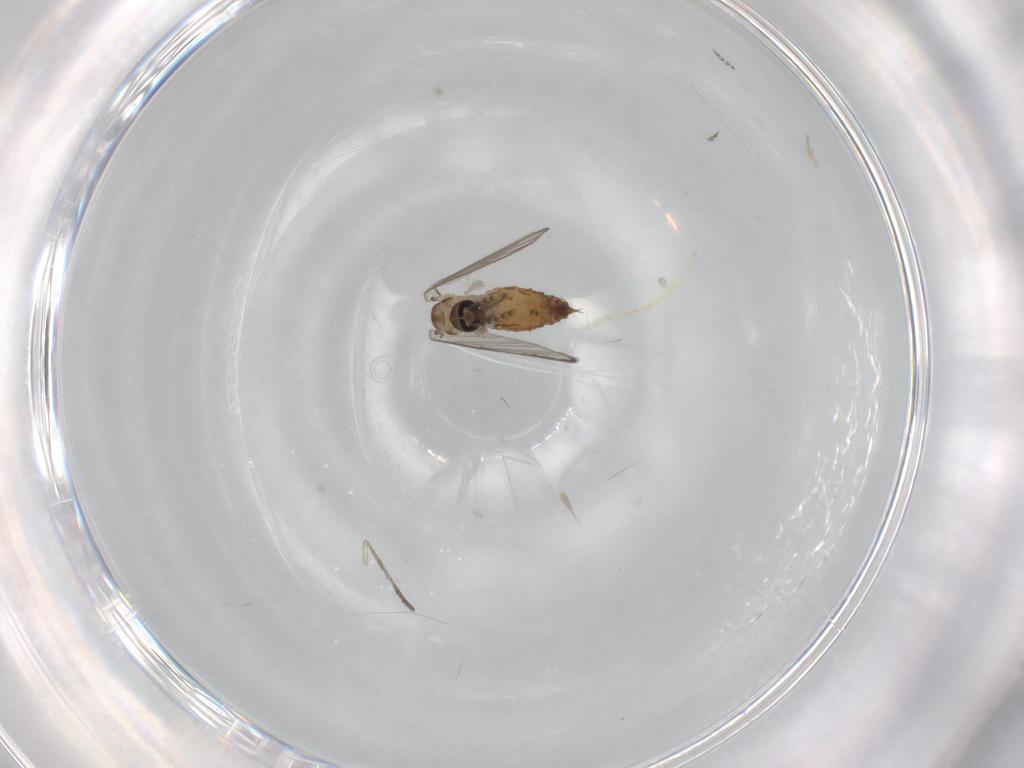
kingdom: Animalia
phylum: Arthropoda
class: Insecta
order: Diptera
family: Psychodidae
